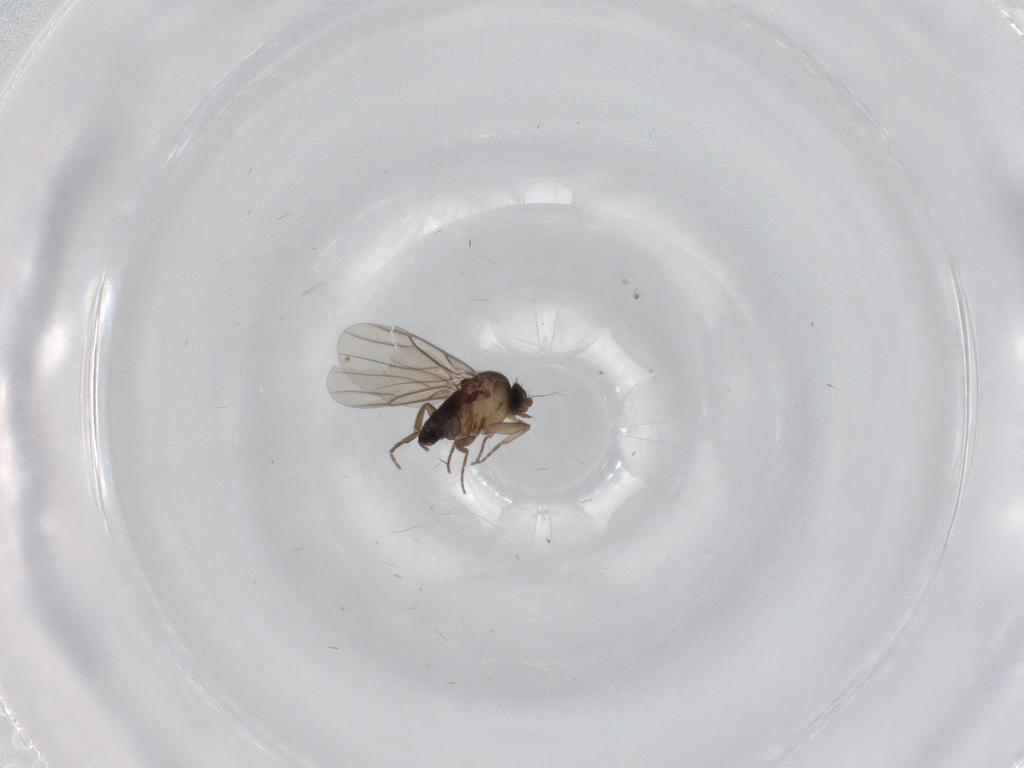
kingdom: Animalia
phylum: Arthropoda
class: Insecta
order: Diptera
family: Phoridae
